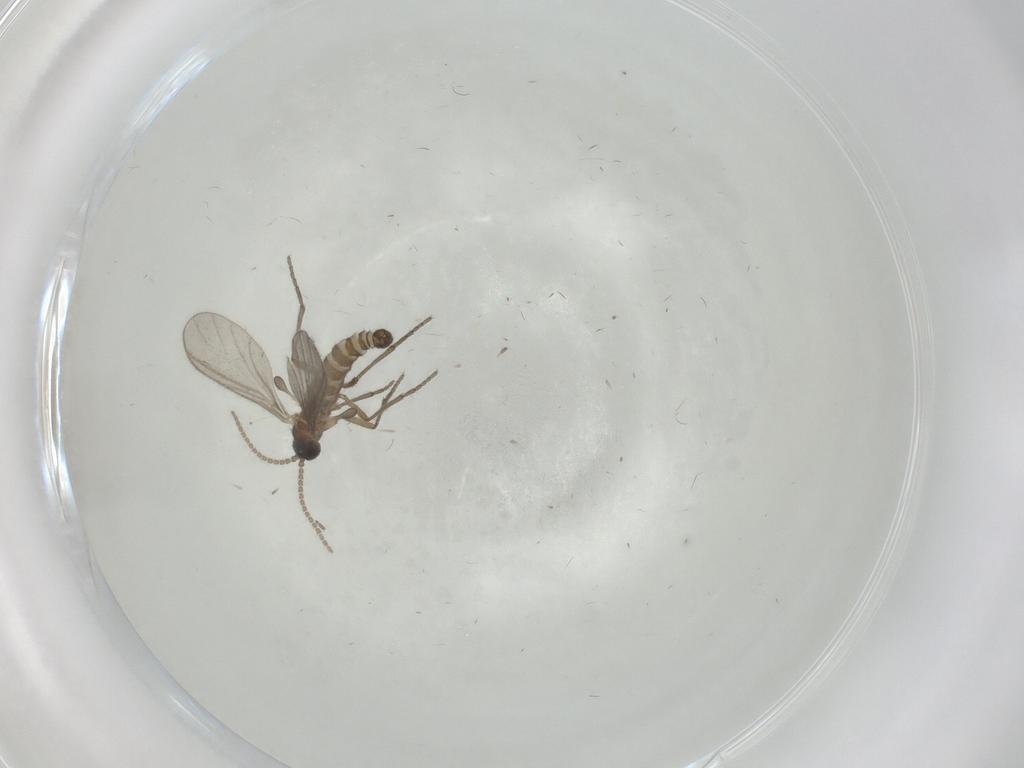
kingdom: Animalia
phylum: Arthropoda
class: Insecta
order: Diptera
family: Sciaridae
